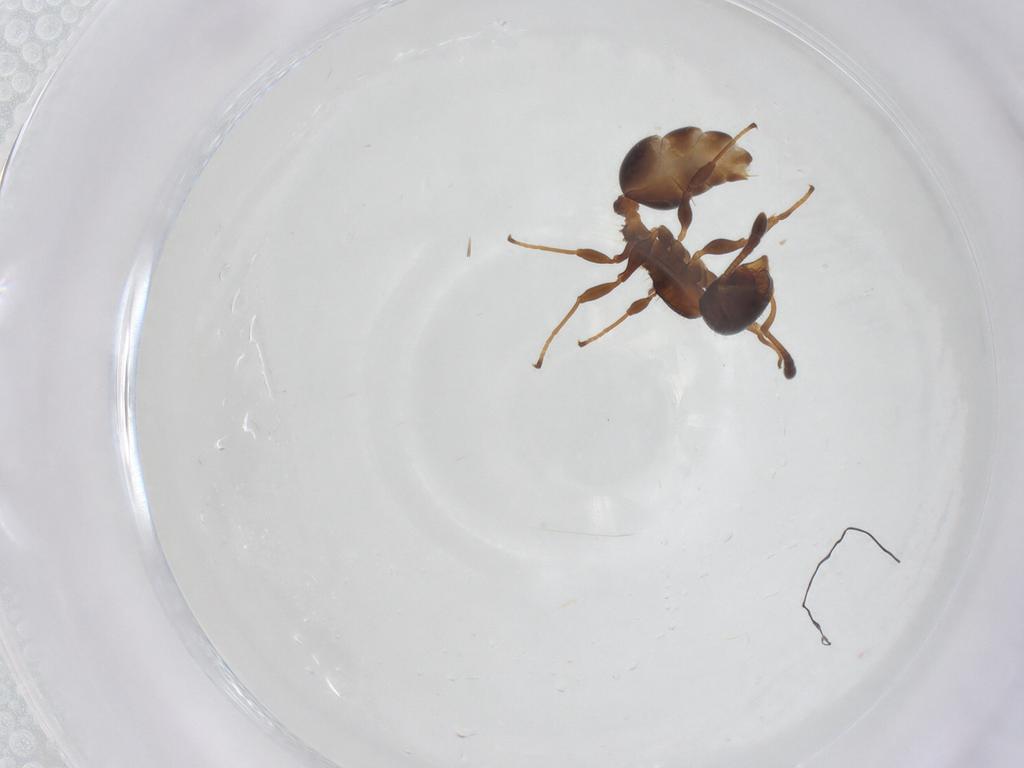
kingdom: Animalia
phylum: Arthropoda
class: Insecta
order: Hymenoptera
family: Formicidae
